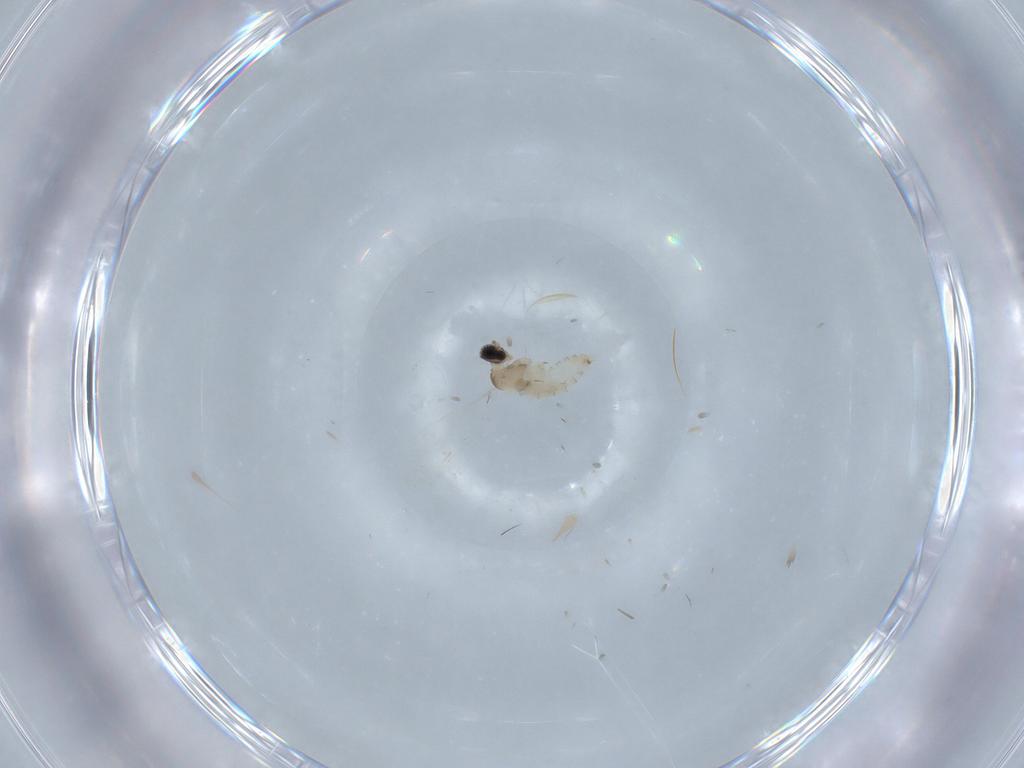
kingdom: Animalia
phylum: Arthropoda
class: Insecta
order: Diptera
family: Cecidomyiidae
